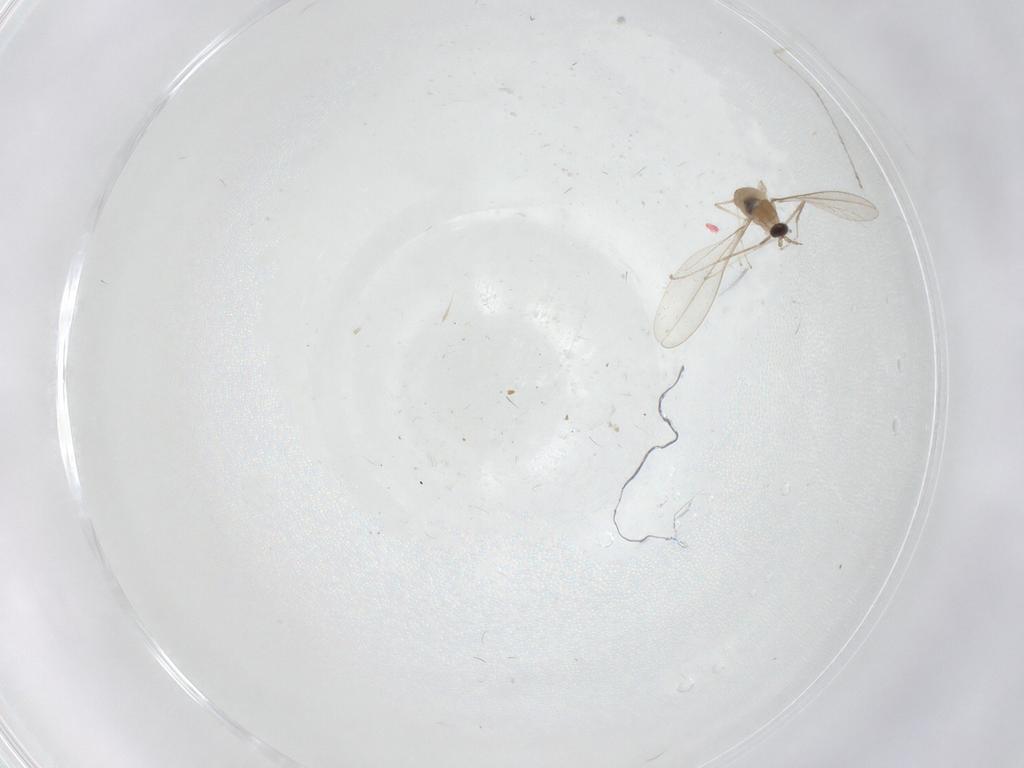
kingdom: Animalia
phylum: Arthropoda
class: Insecta
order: Diptera
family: Cecidomyiidae
